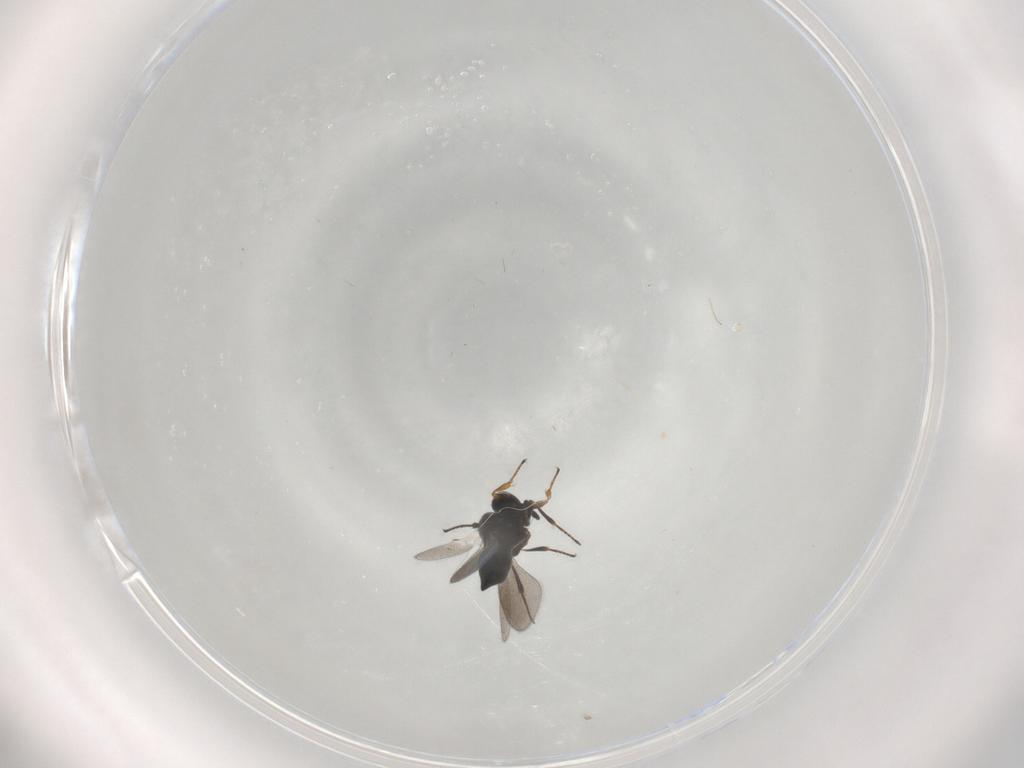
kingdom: Animalia
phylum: Arthropoda
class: Insecta
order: Hymenoptera
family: Platygastridae
